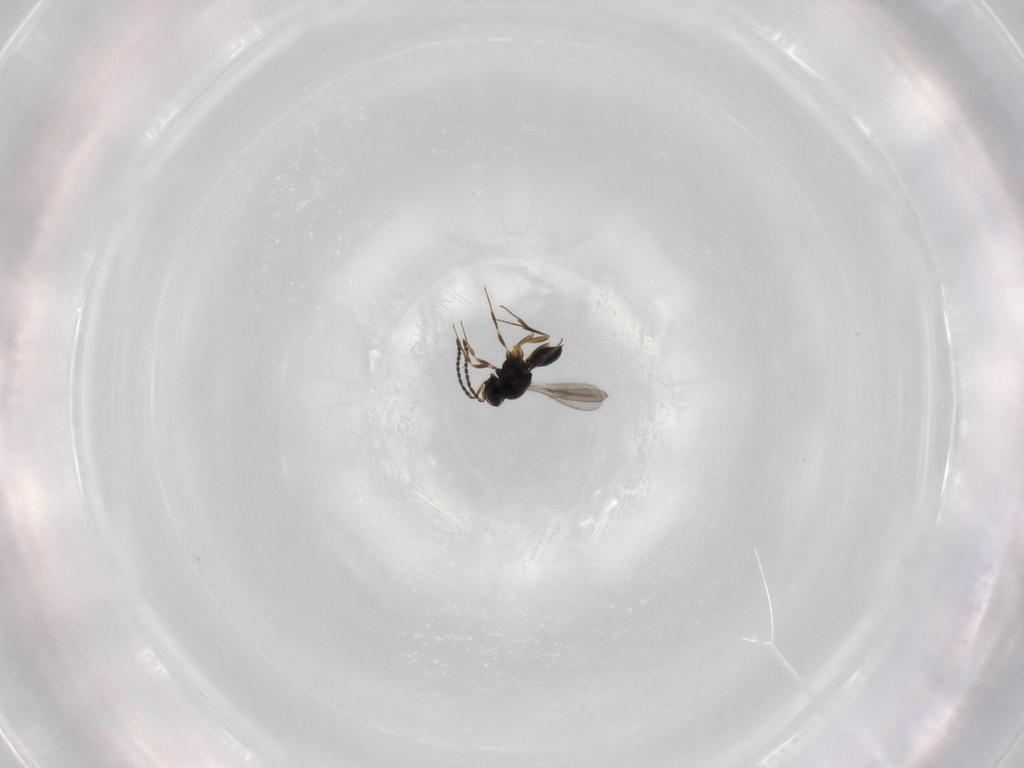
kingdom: Animalia
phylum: Arthropoda
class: Insecta
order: Hymenoptera
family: Scelionidae
